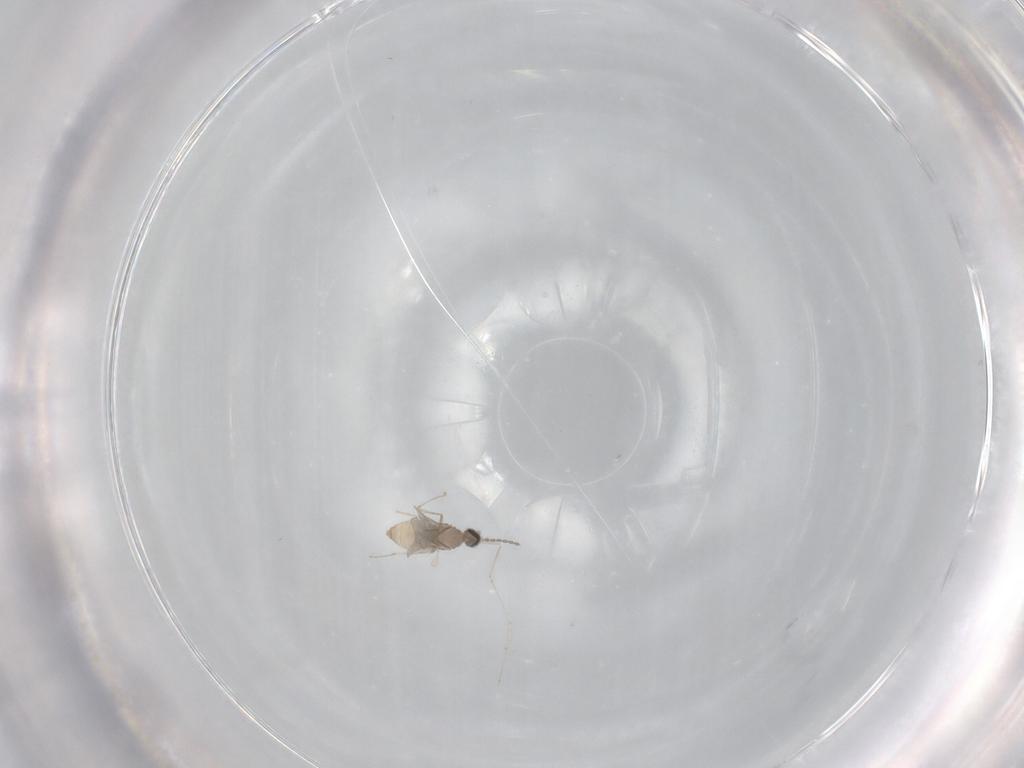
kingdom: Animalia
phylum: Arthropoda
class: Insecta
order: Diptera
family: Cecidomyiidae
